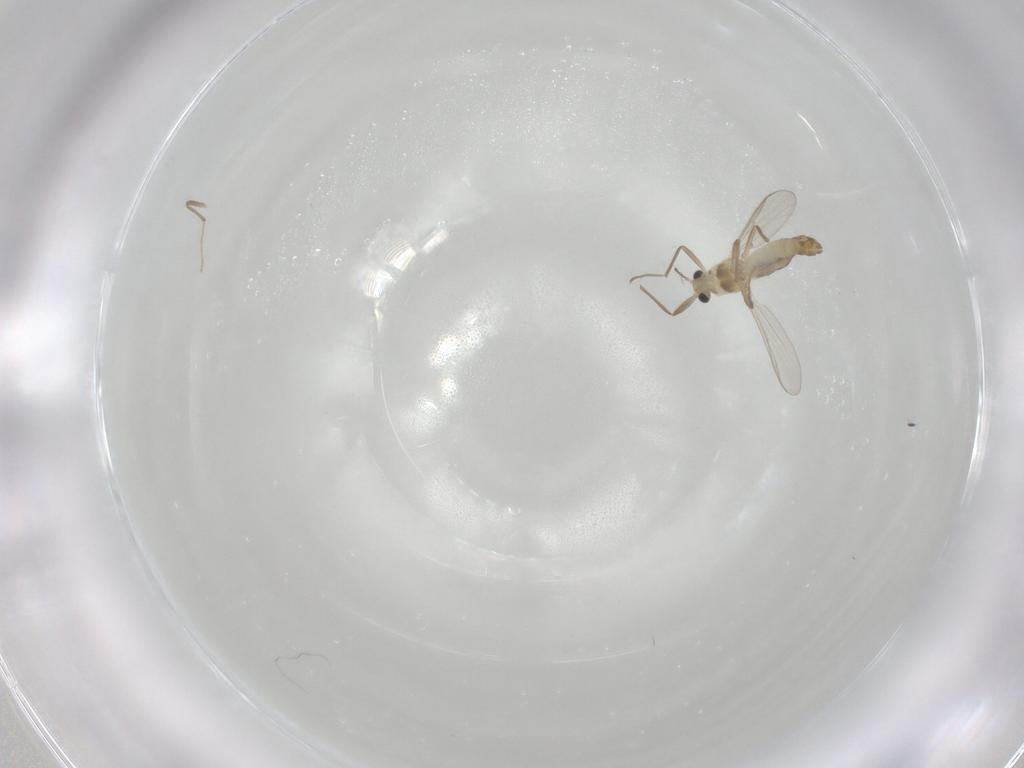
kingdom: Animalia
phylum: Arthropoda
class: Insecta
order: Diptera
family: Chironomidae
